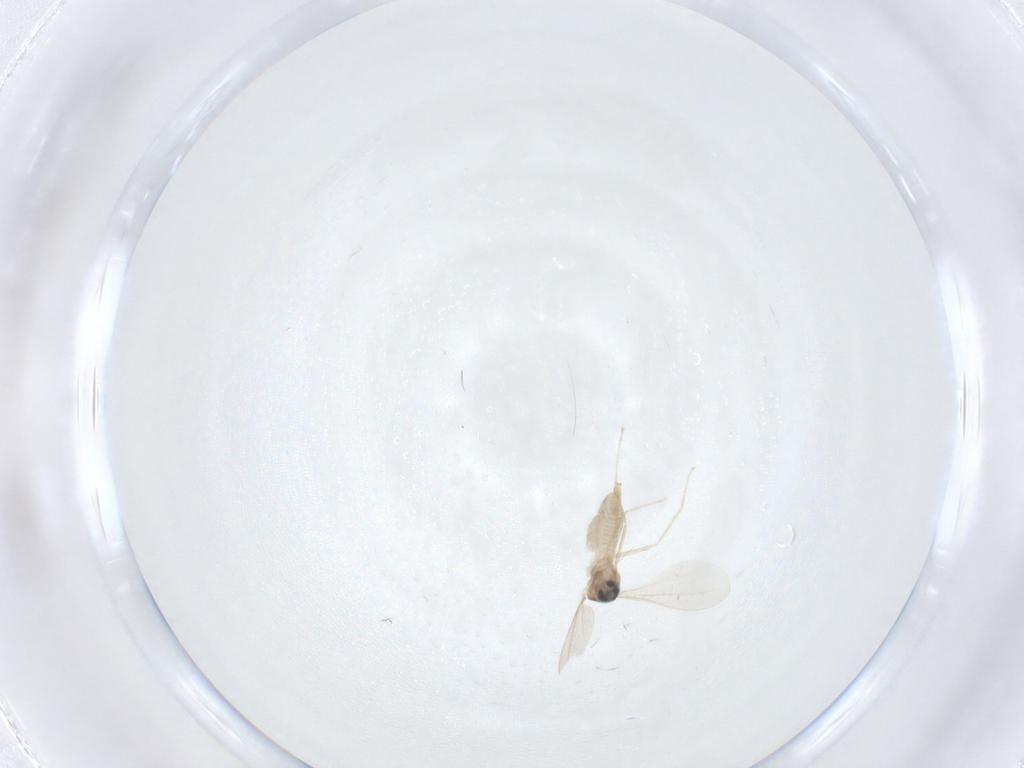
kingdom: Animalia
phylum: Arthropoda
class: Insecta
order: Diptera
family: Cecidomyiidae
